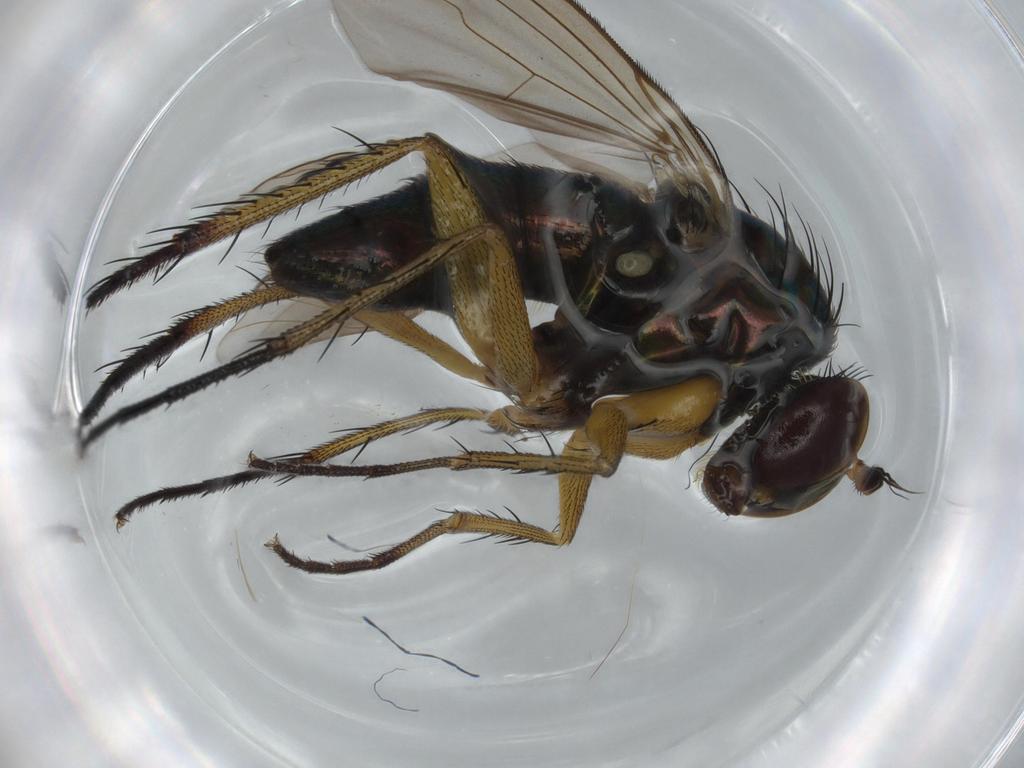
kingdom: Animalia
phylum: Arthropoda
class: Insecta
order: Diptera
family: Dolichopodidae
